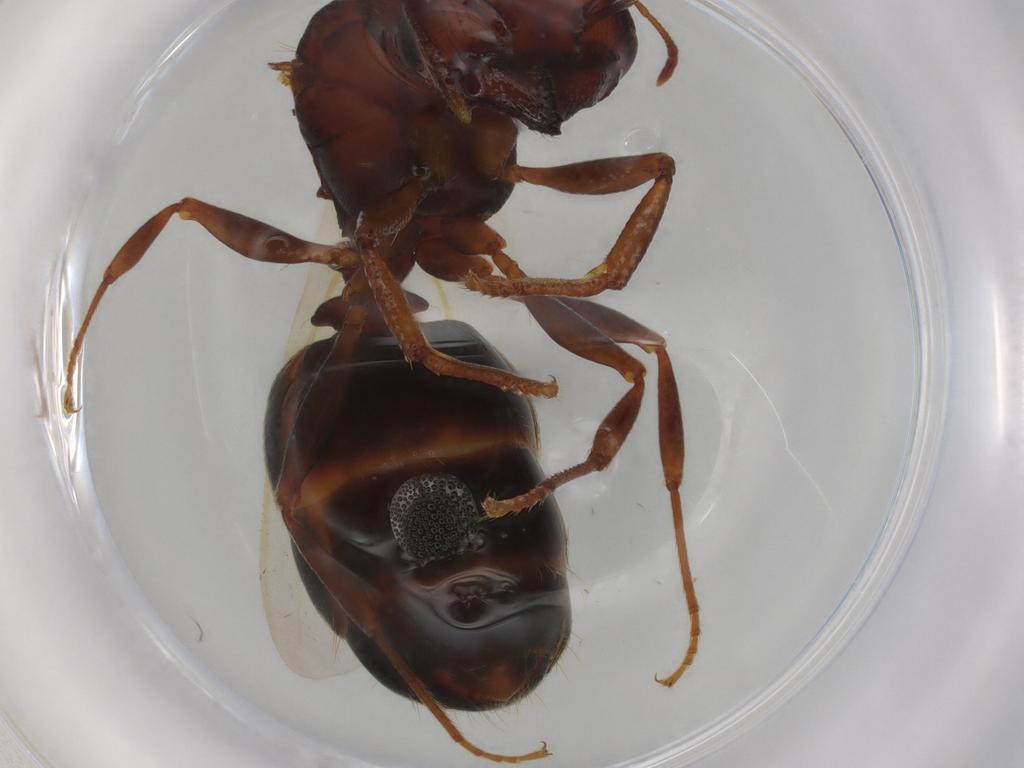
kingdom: Animalia
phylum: Arthropoda
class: Insecta
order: Hymenoptera
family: Formicidae
